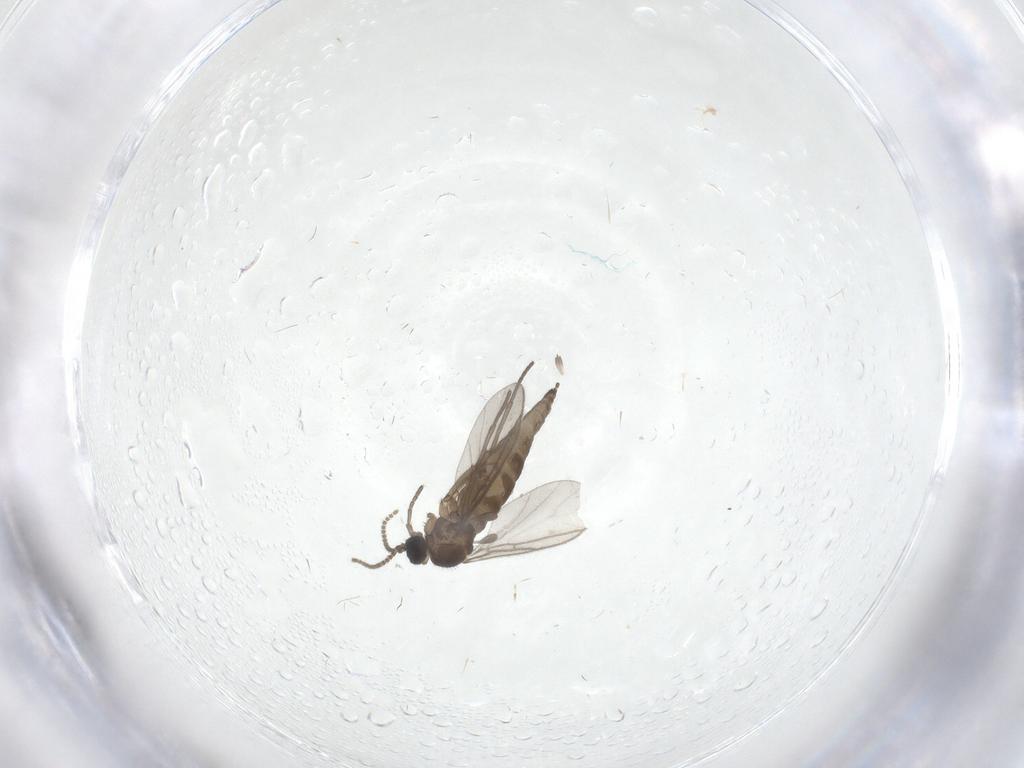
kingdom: Animalia
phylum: Arthropoda
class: Insecta
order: Diptera
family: Cecidomyiidae
